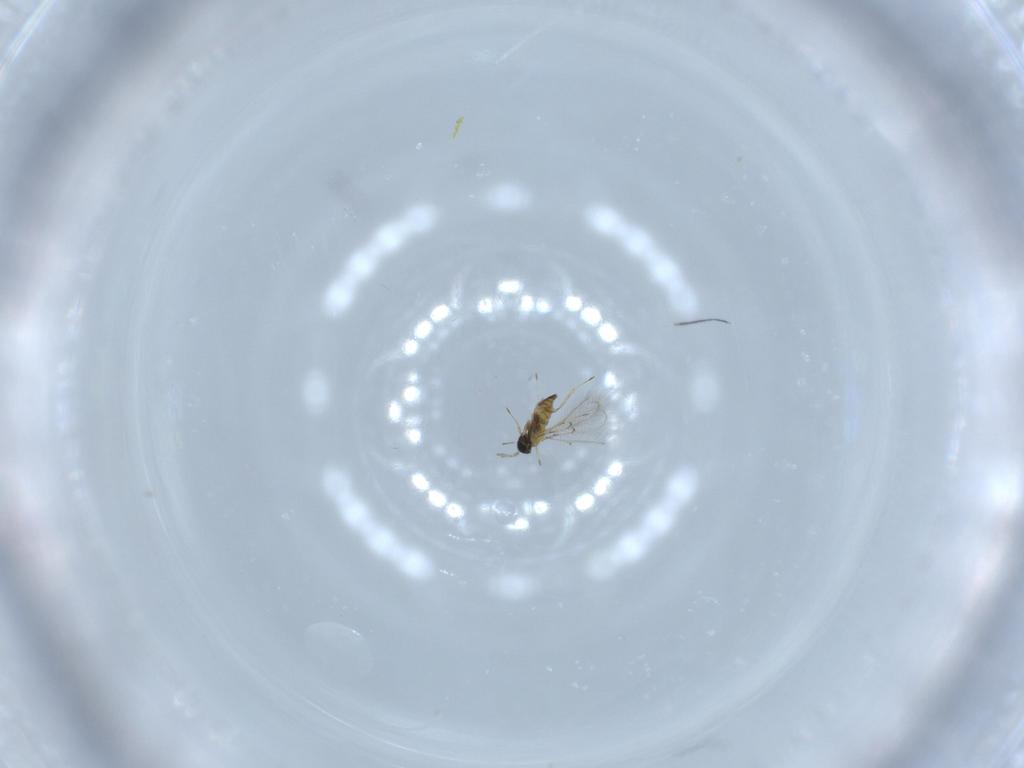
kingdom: Animalia
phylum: Arthropoda
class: Insecta
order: Hymenoptera
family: Trichogrammatidae
